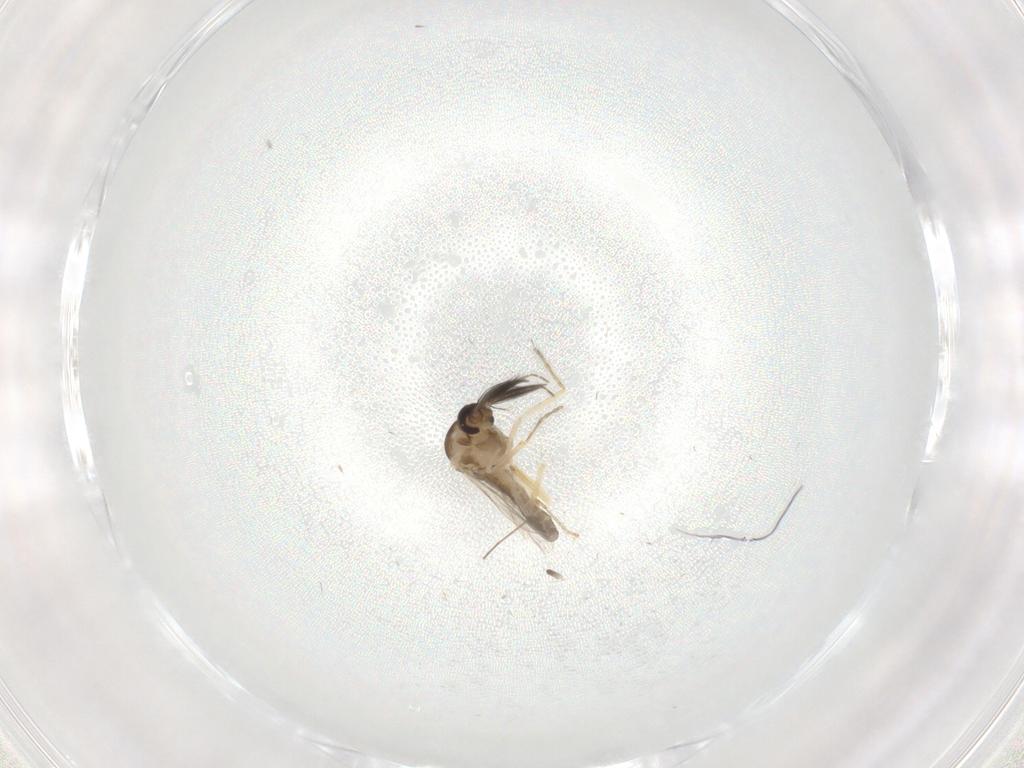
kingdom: Animalia
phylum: Arthropoda
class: Insecta
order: Diptera
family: Ceratopogonidae
